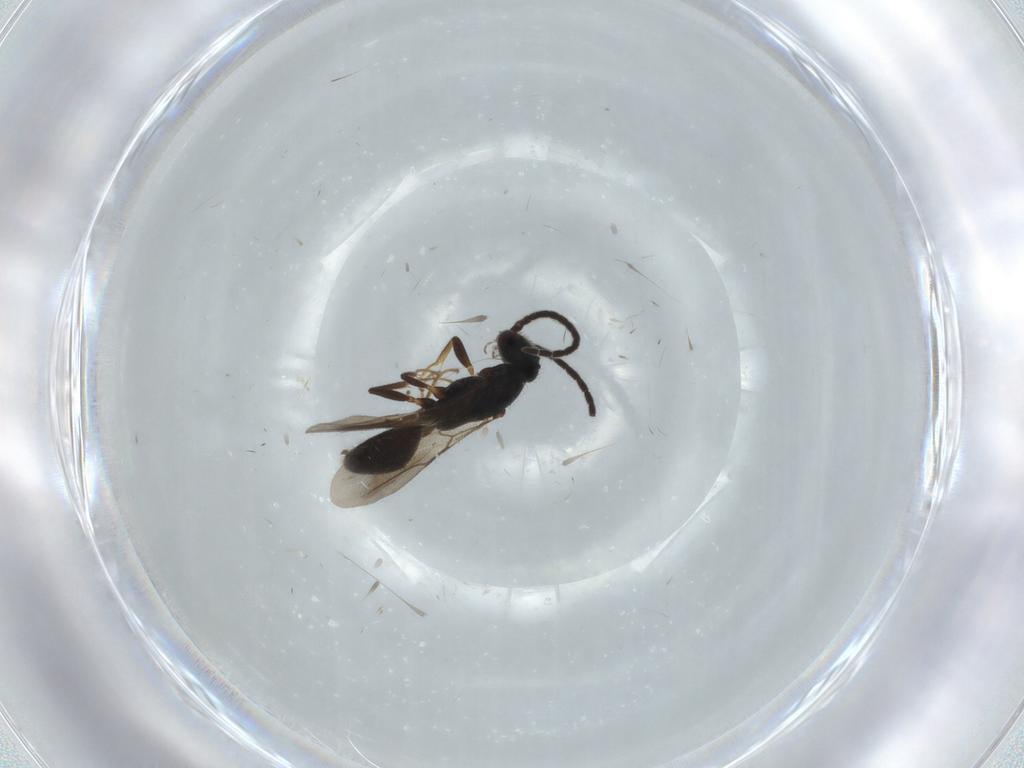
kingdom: Animalia
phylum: Arthropoda
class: Insecta
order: Hymenoptera
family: Bethylidae
